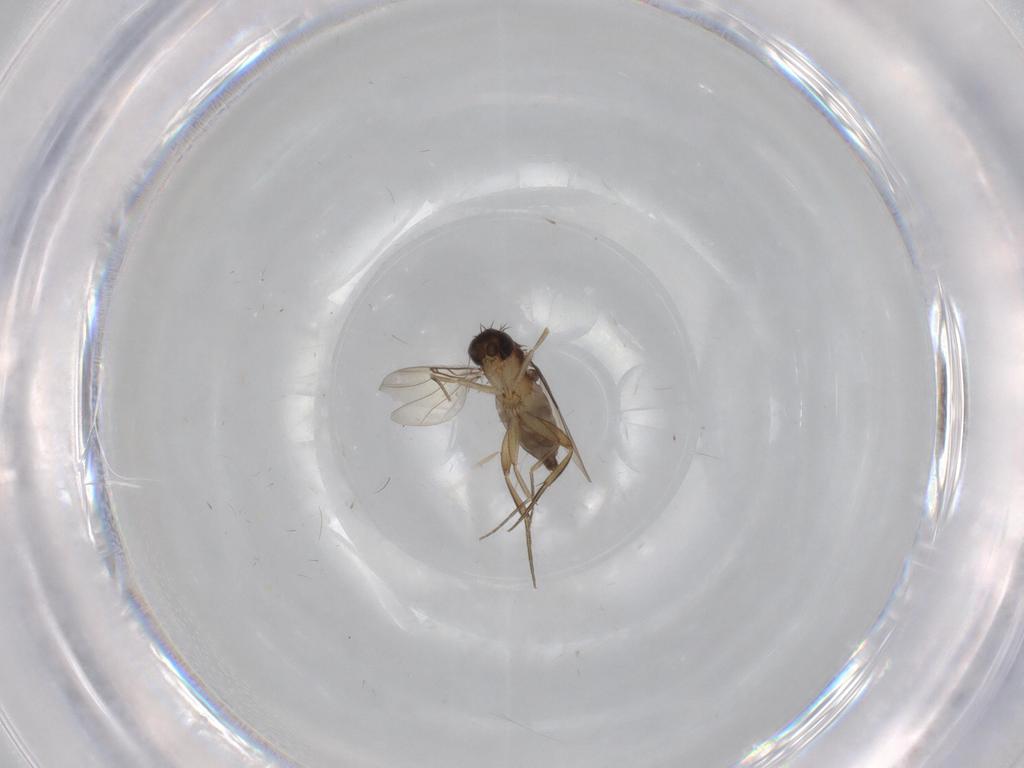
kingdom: Animalia
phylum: Arthropoda
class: Insecta
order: Diptera
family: Phoridae
